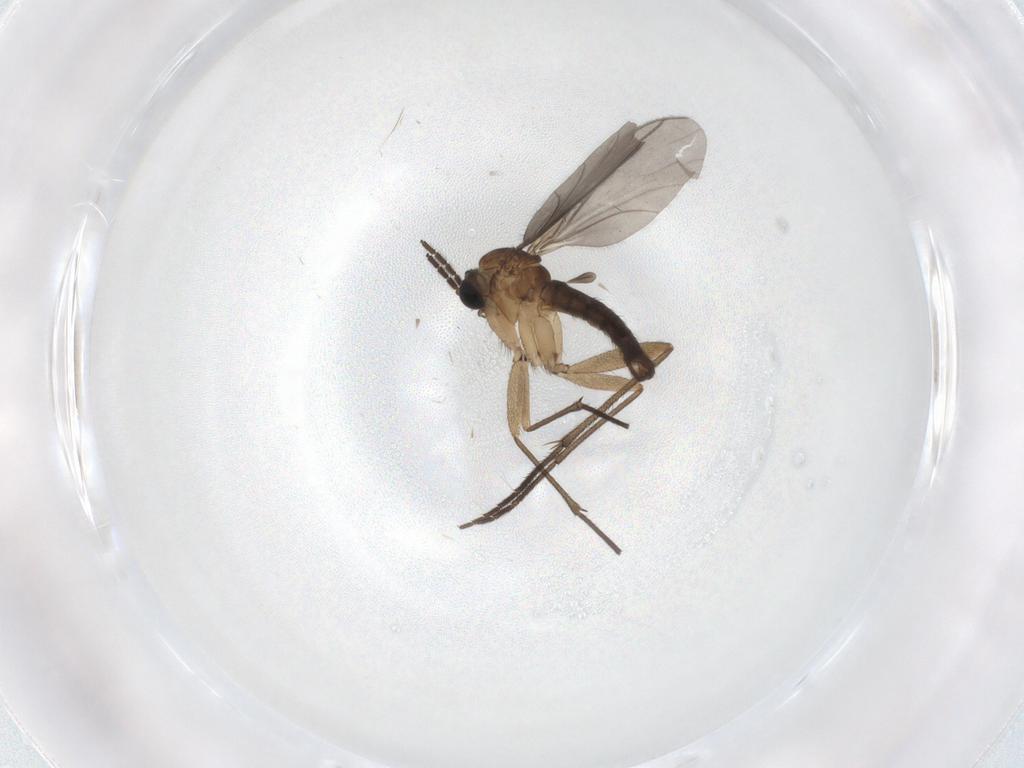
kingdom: Animalia
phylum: Arthropoda
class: Insecta
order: Diptera
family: Sciaridae
